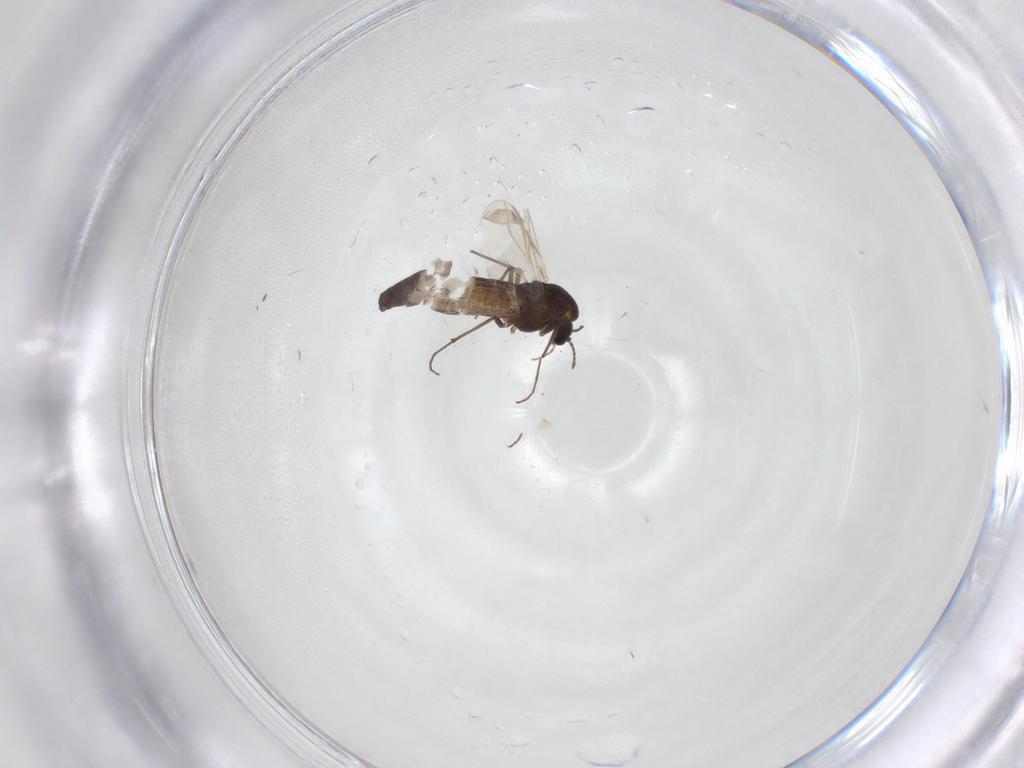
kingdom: Animalia
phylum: Arthropoda
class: Insecta
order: Diptera
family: Chironomidae
